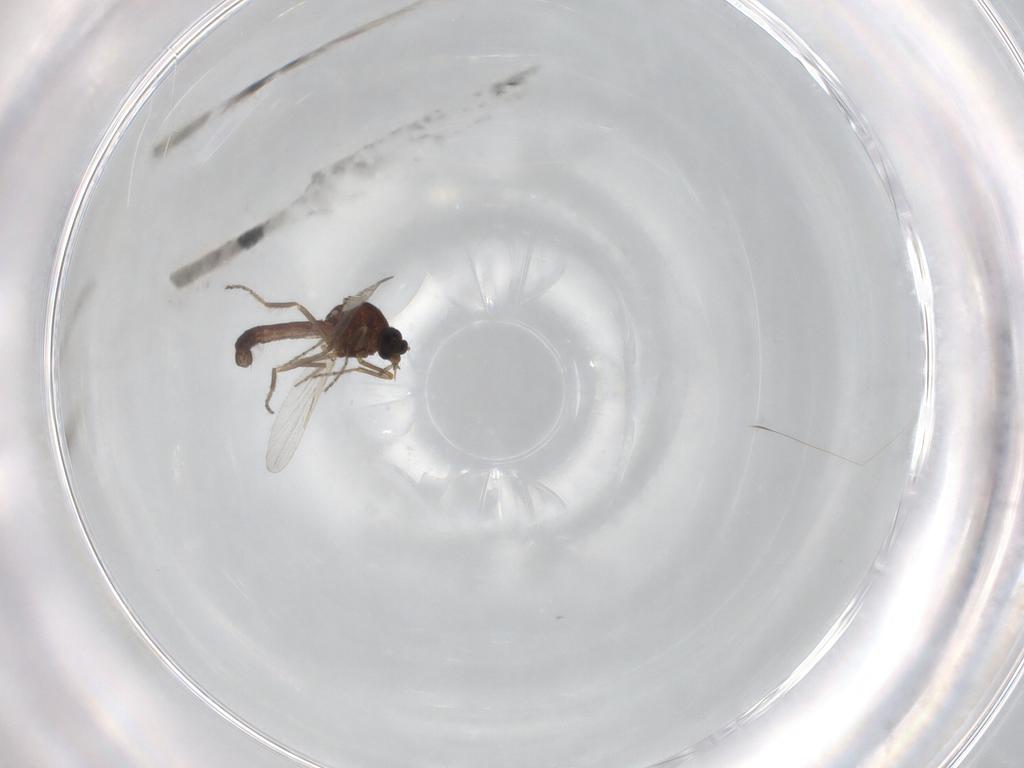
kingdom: Animalia
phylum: Arthropoda
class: Insecta
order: Diptera
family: Ceratopogonidae
